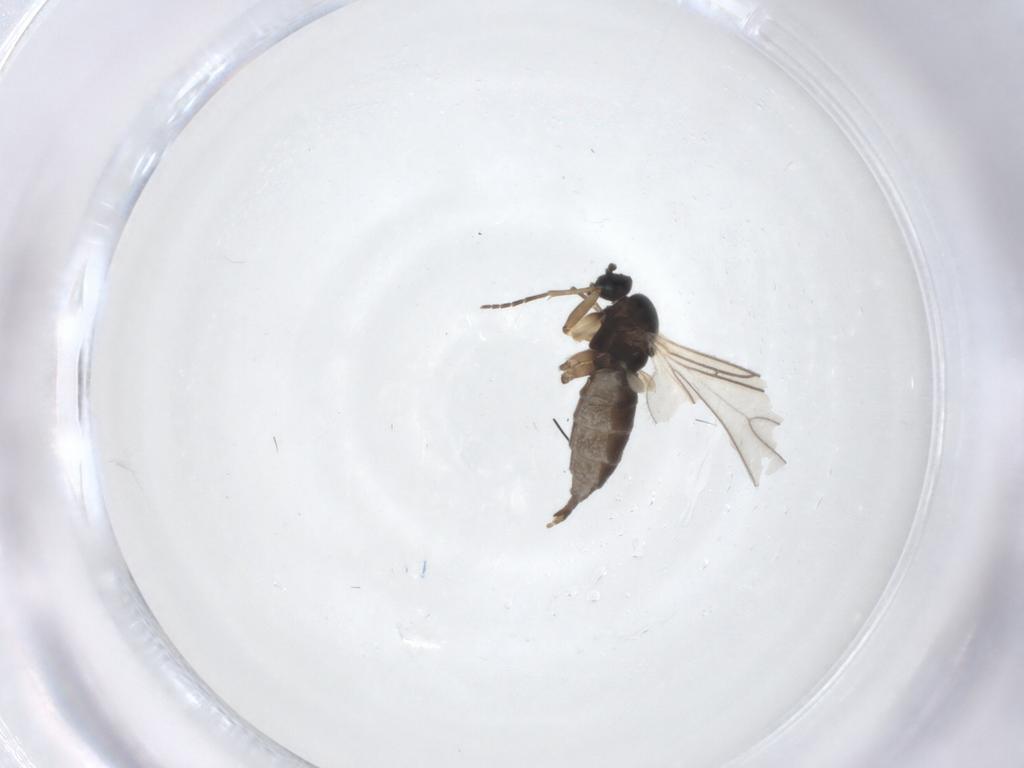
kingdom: Animalia
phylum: Arthropoda
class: Insecta
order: Diptera
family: Sciaridae
